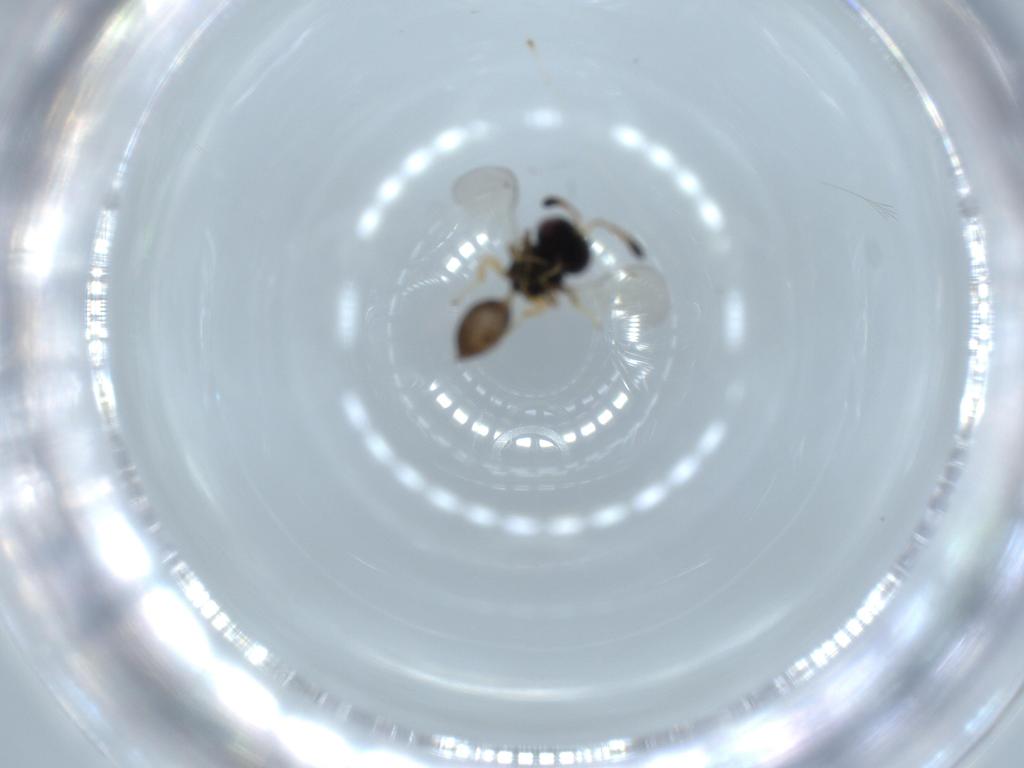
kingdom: Animalia
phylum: Arthropoda
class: Insecta
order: Hymenoptera
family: Pteromalidae
